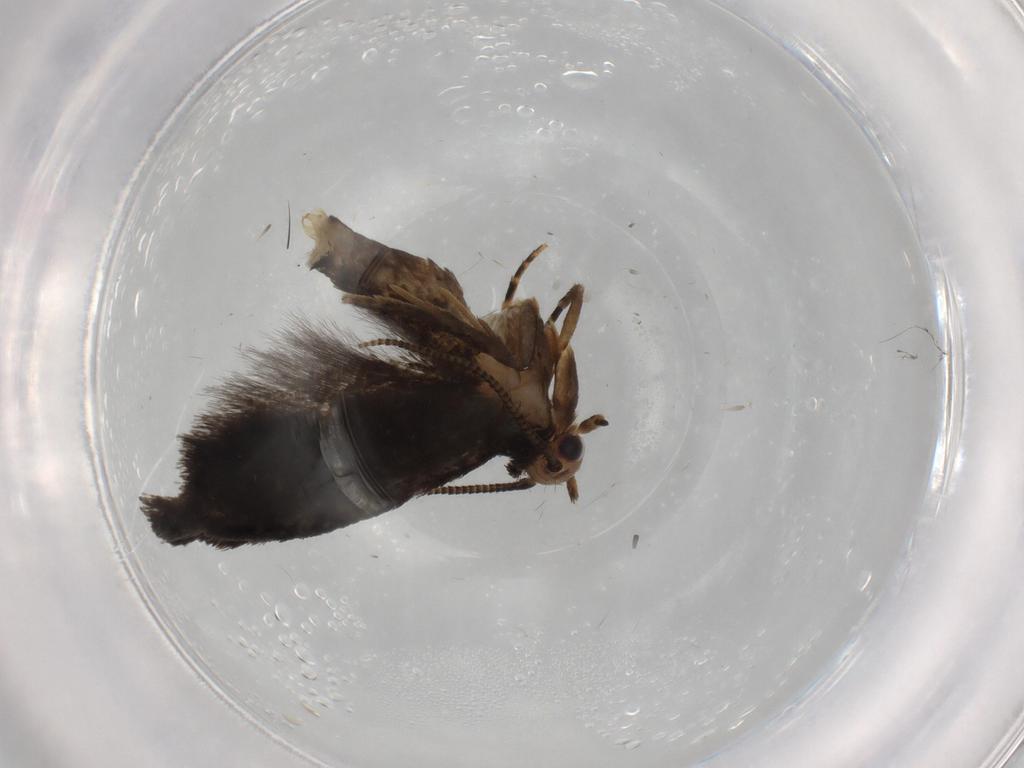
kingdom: Animalia
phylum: Arthropoda
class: Insecta
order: Lepidoptera
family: Tineidae
